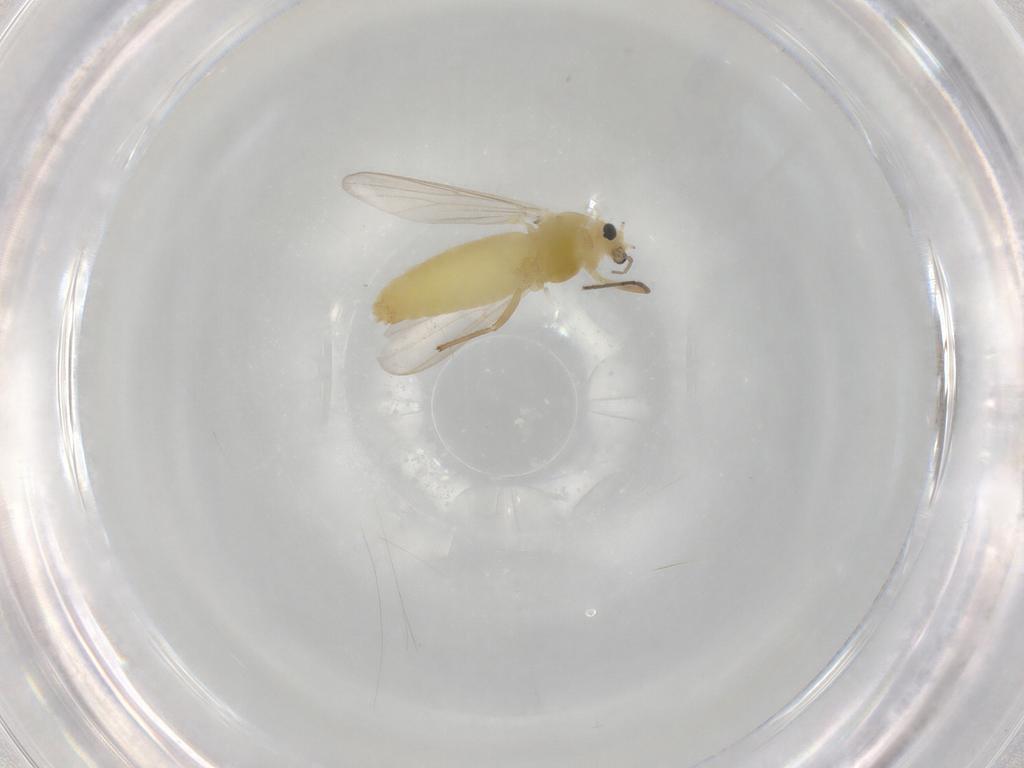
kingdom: Animalia
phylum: Arthropoda
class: Insecta
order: Diptera
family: Chironomidae
